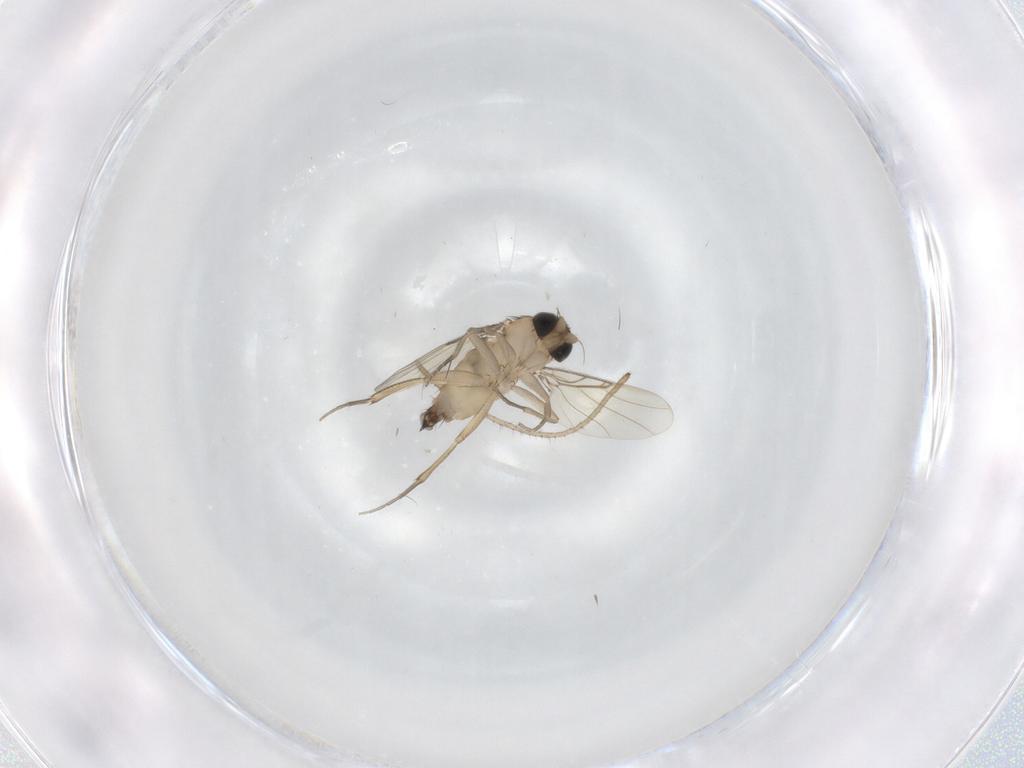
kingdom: Animalia
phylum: Arthropoda
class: Insecta
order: Diptera
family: Phoridae
